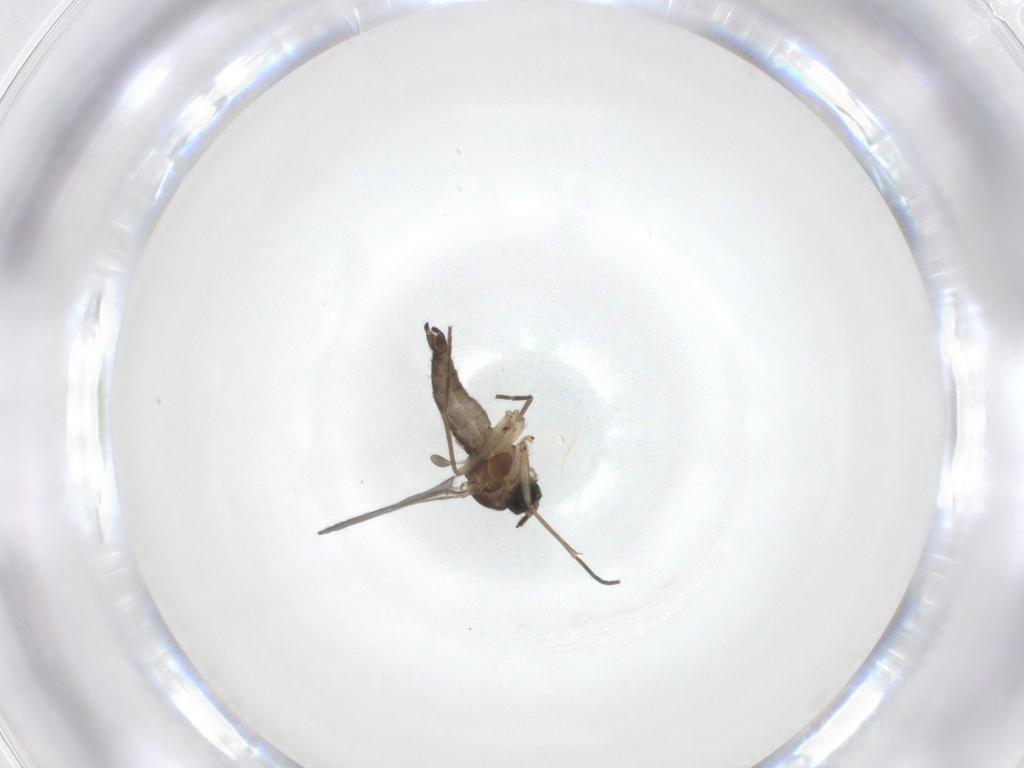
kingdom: Animalia
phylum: Arthropoda
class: Insecta
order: Diptera
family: Sciaridae
